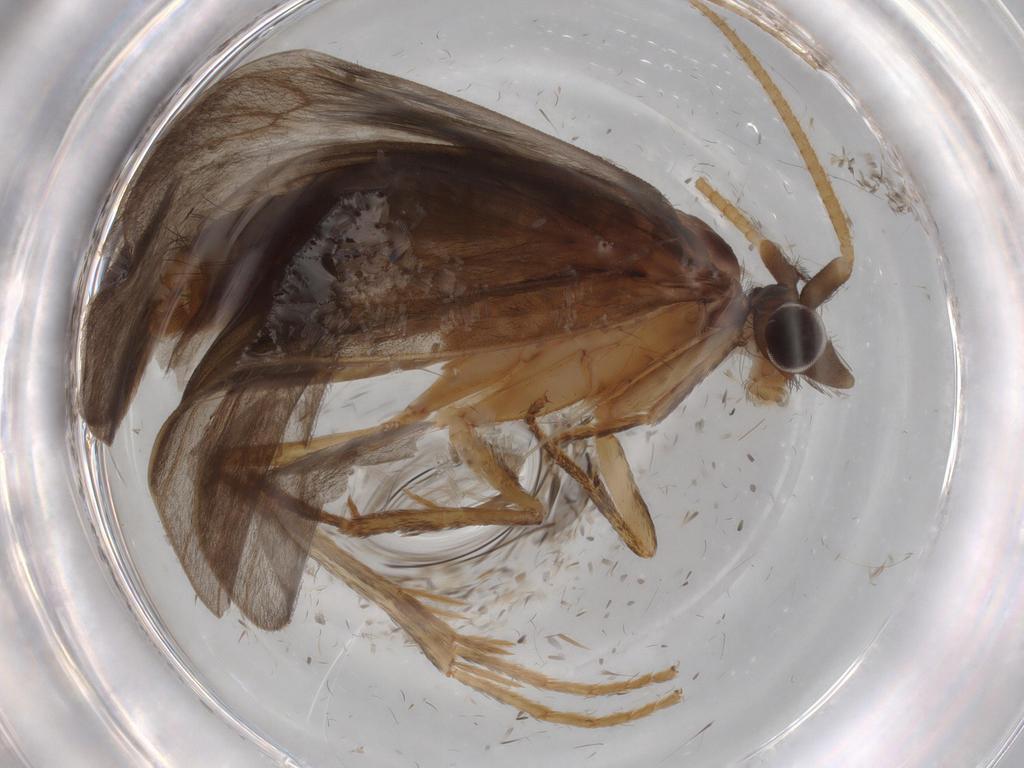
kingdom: Animalia
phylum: Arthropoda
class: Insecta
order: Trichoptera
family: Lepidostomatidae
